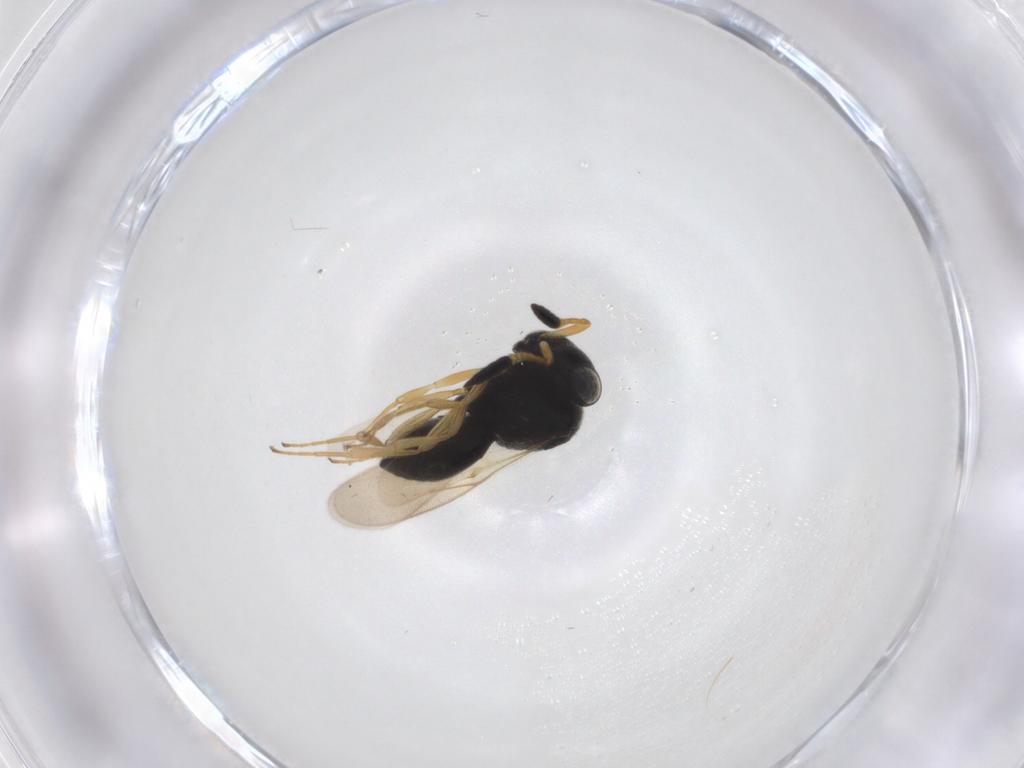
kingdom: Animalia
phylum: Arthropoda
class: Insecta
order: Hymenoptera
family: Scelionidae
